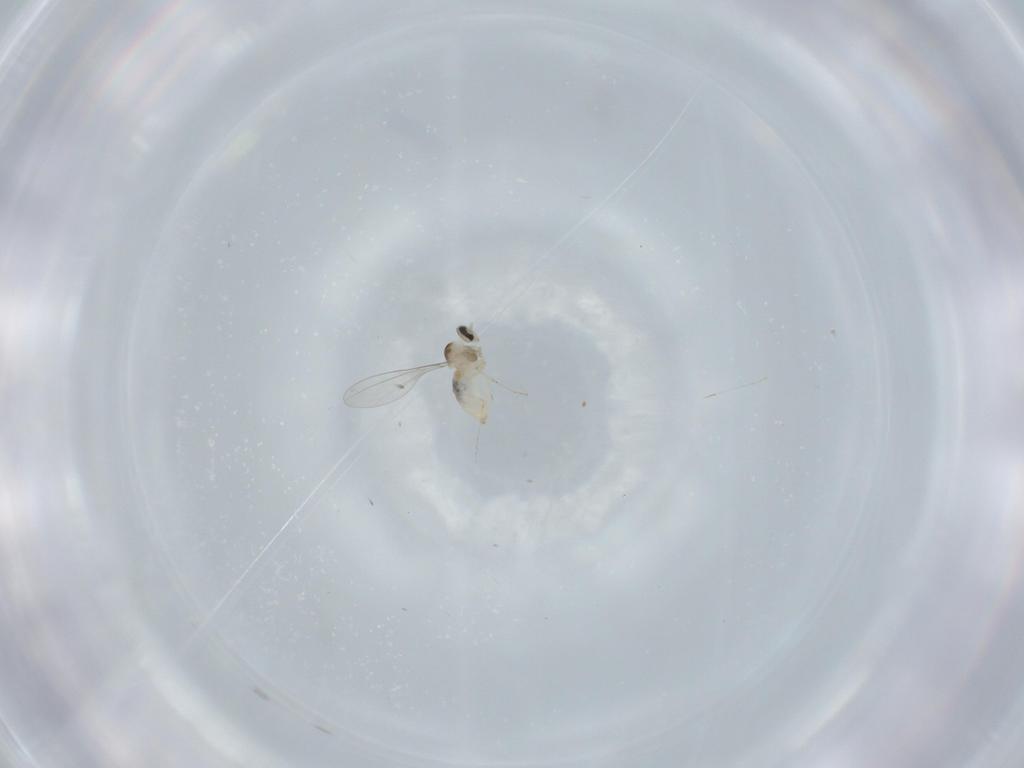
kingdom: Animalia
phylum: Arthropoda
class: Insecta
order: Diptera
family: Cecidomyiidae
